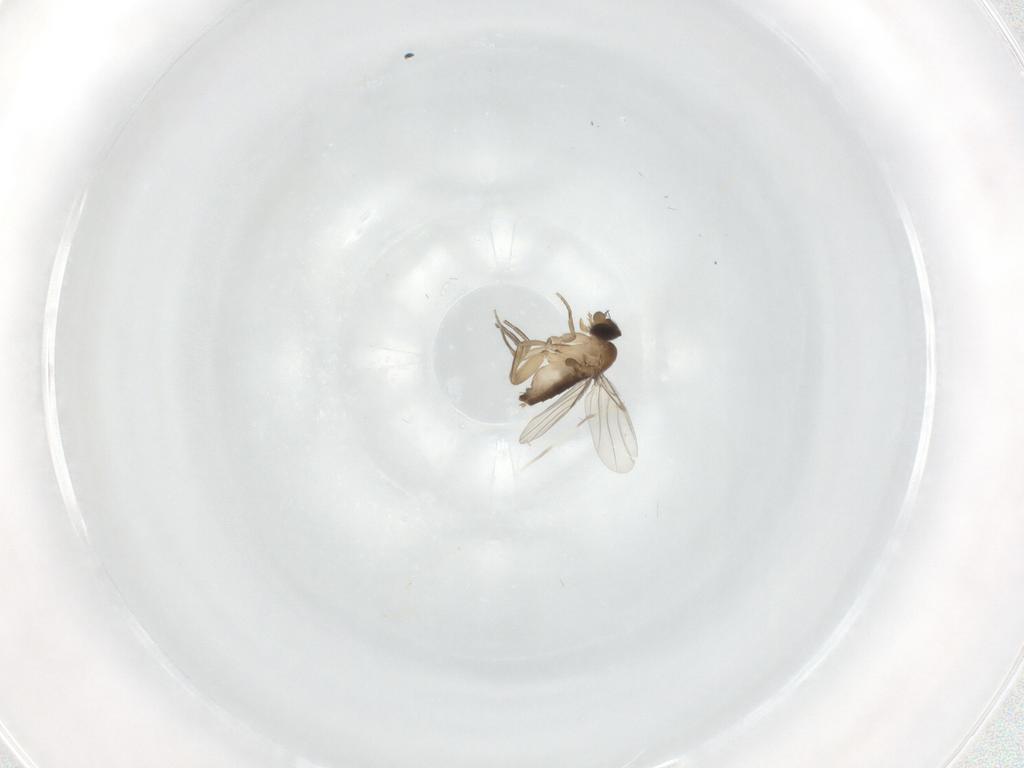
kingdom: Animalia
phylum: Arthropoda
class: Insecta
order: Diptera
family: Cecidomyiidae
